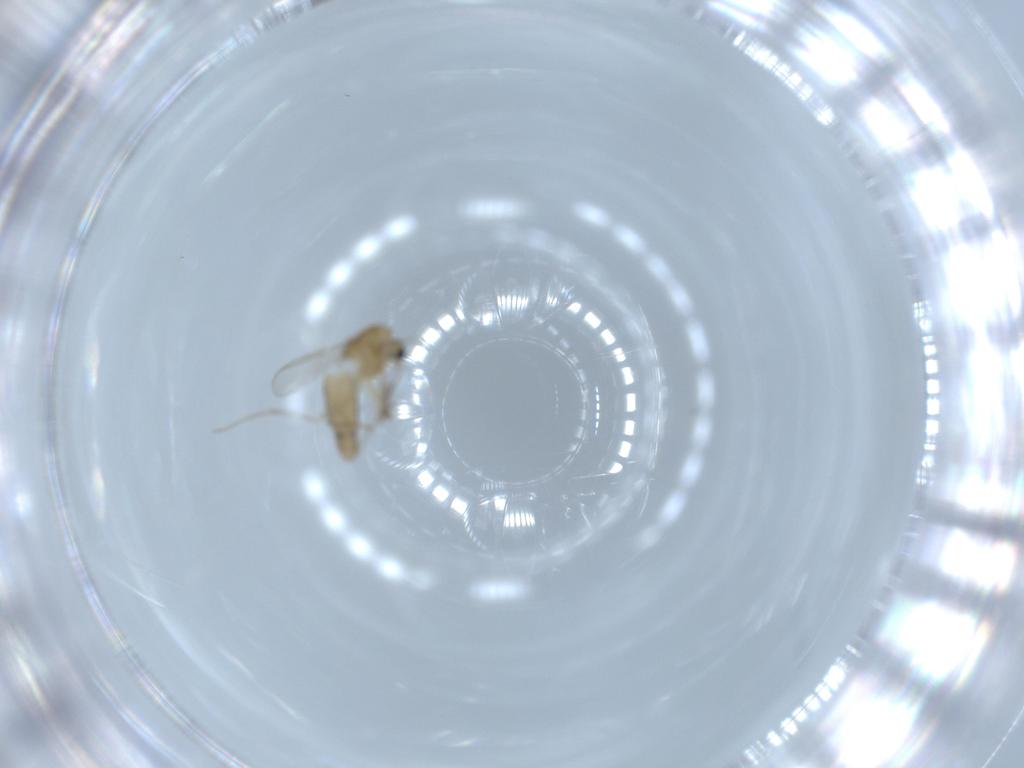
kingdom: Animalia
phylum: Arthropoda
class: Insecta
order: Diptera
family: Chironomidae
